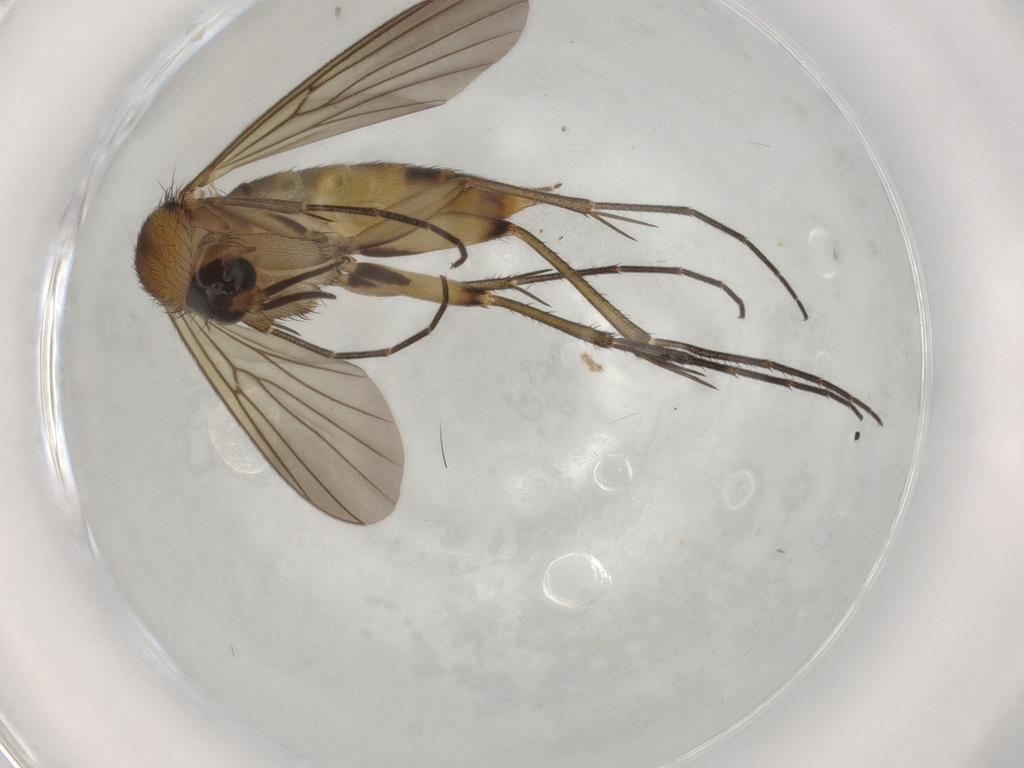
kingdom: Animalia
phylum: Arthropoda
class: Insecta
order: Diptera
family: Mycetophilidae
